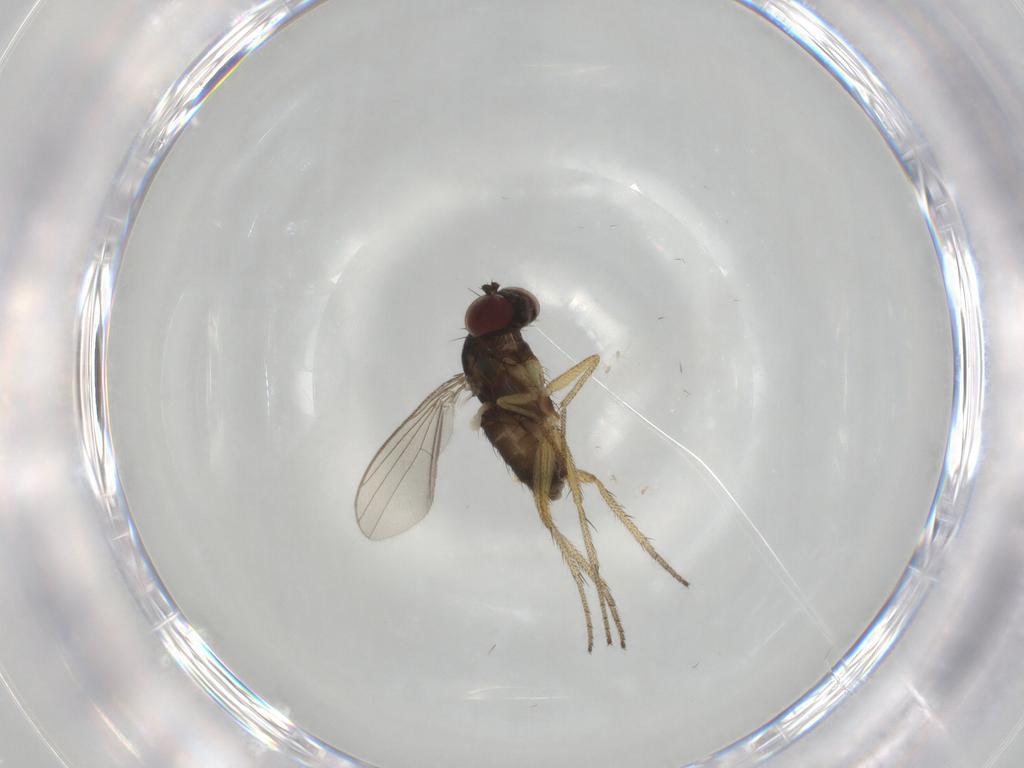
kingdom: Animalia
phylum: Arthropoda
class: Insecta
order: Diptera
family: Dolichopodidae
